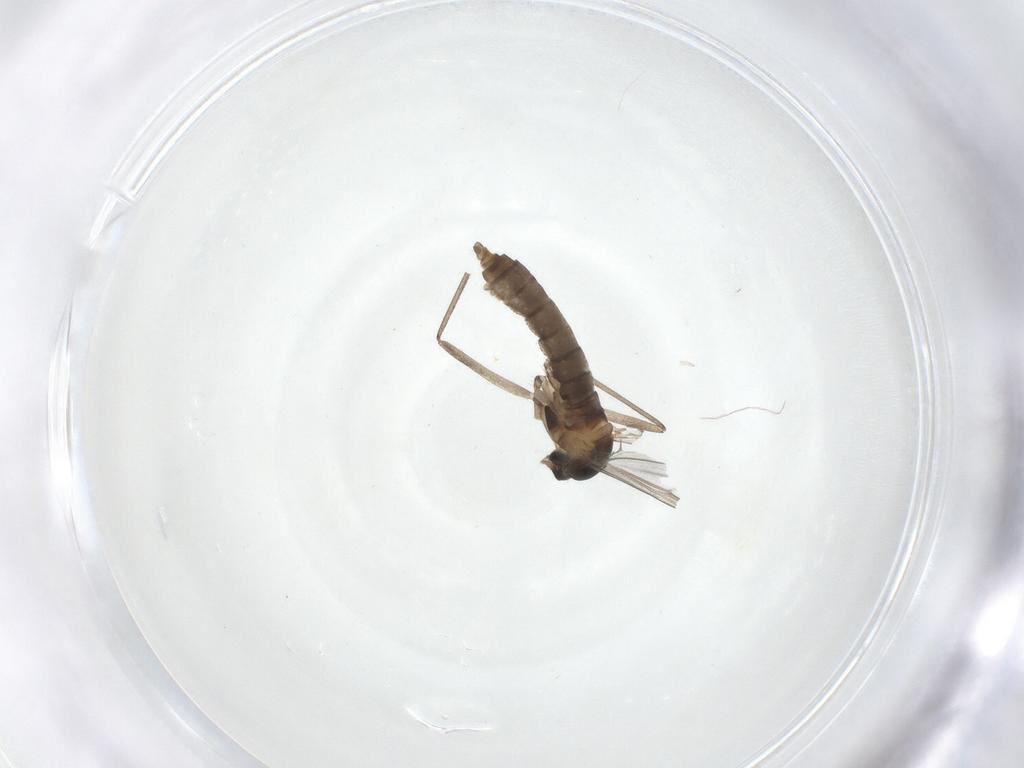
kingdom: Animalia
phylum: Arthropoda
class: Insecta
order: Diptera
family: Cecidomyiidae
